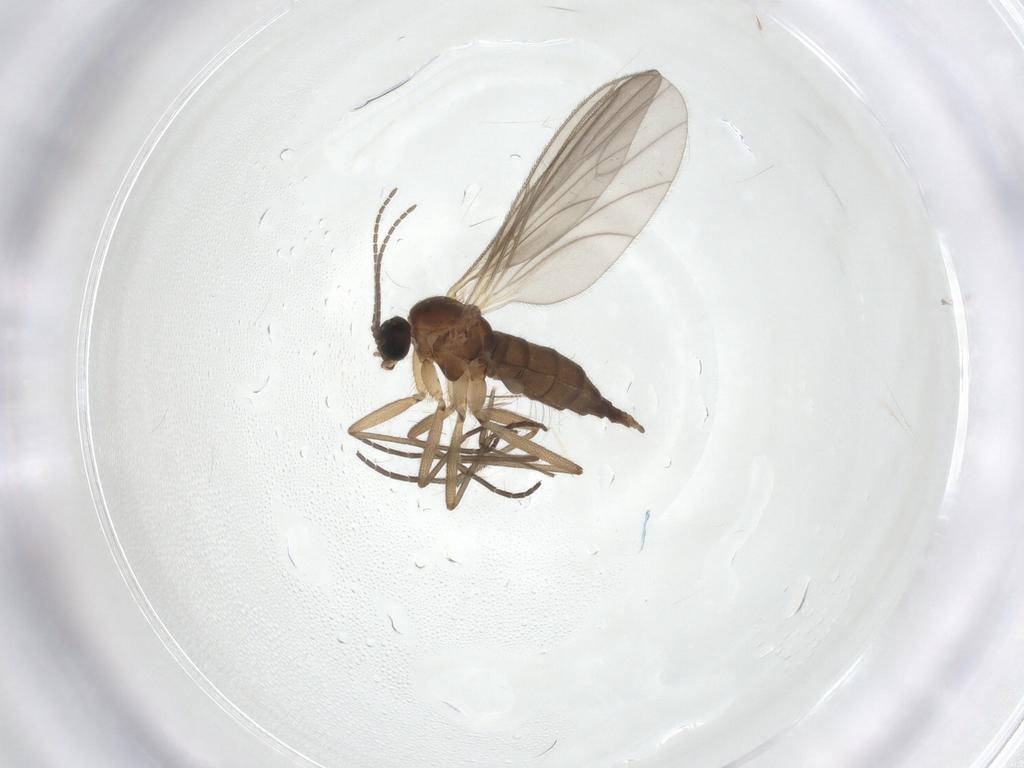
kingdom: Animalia
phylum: Arthropoda
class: Insecta
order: Diptera
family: Sciaridae
